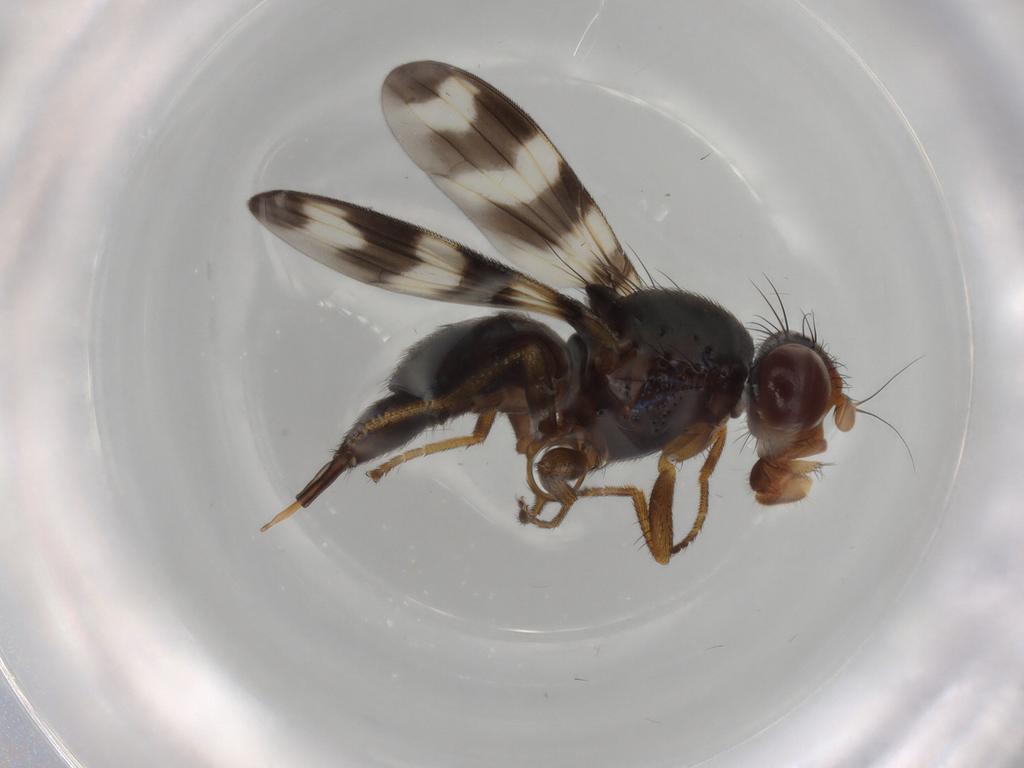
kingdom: Animalia
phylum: Arthropoda
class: Insecta
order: Diptera
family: Ulidiidae
